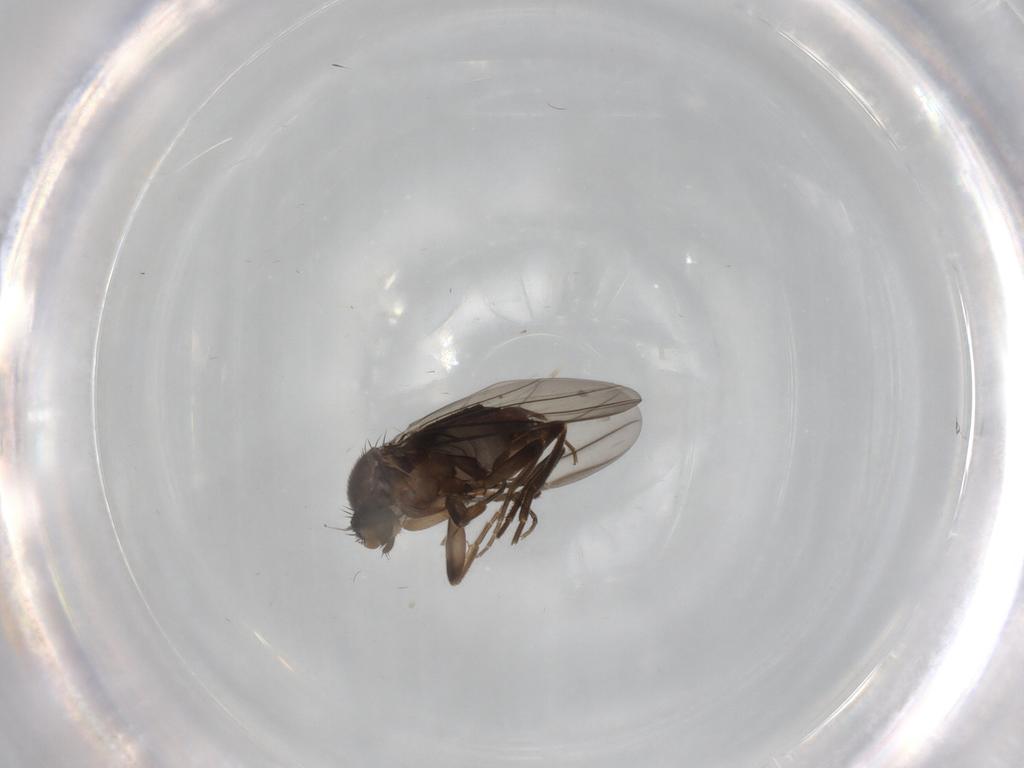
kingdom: Animalia
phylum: Arthropoda
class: Insecta
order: Diptera
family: Phoridae
